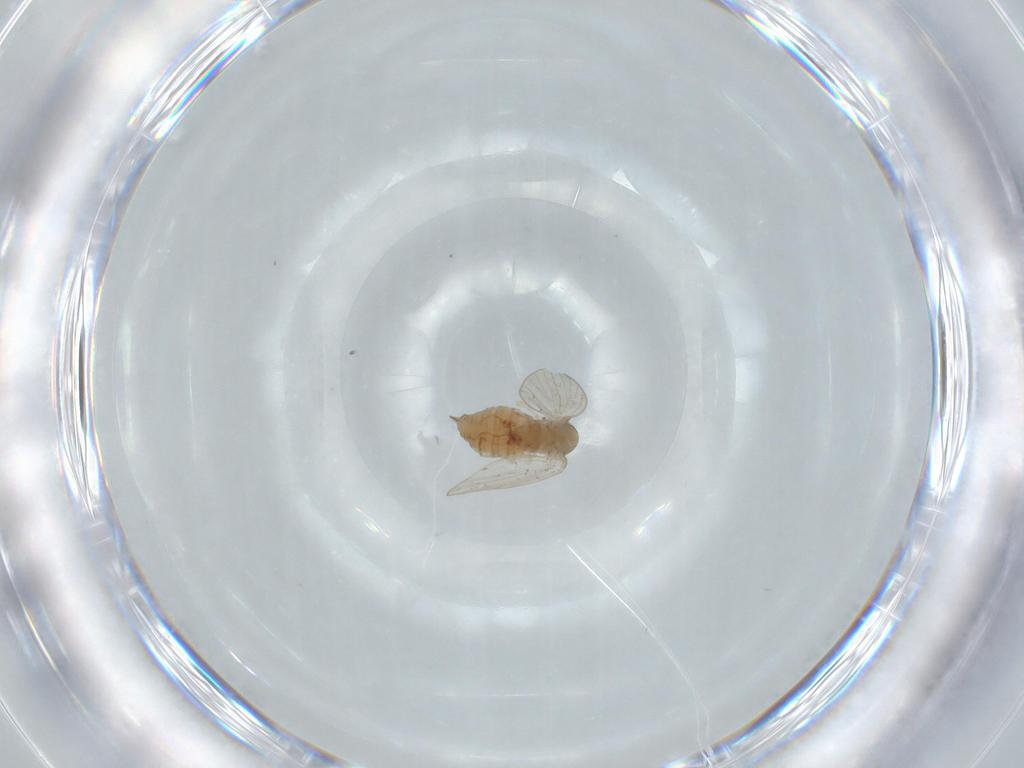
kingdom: Animalia
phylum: Arthropoda
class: Insecta
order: Diptera
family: Psychodidae
